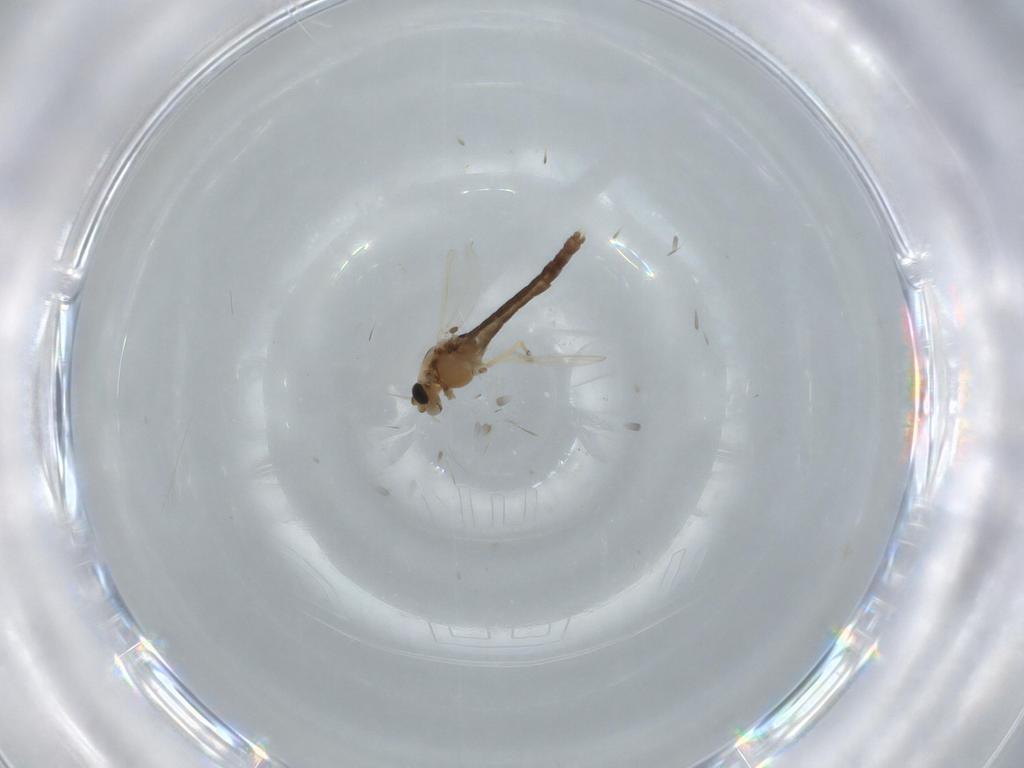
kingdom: Animalia
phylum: Arthropoda
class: Insecta
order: Diptera
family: Chironomidae
